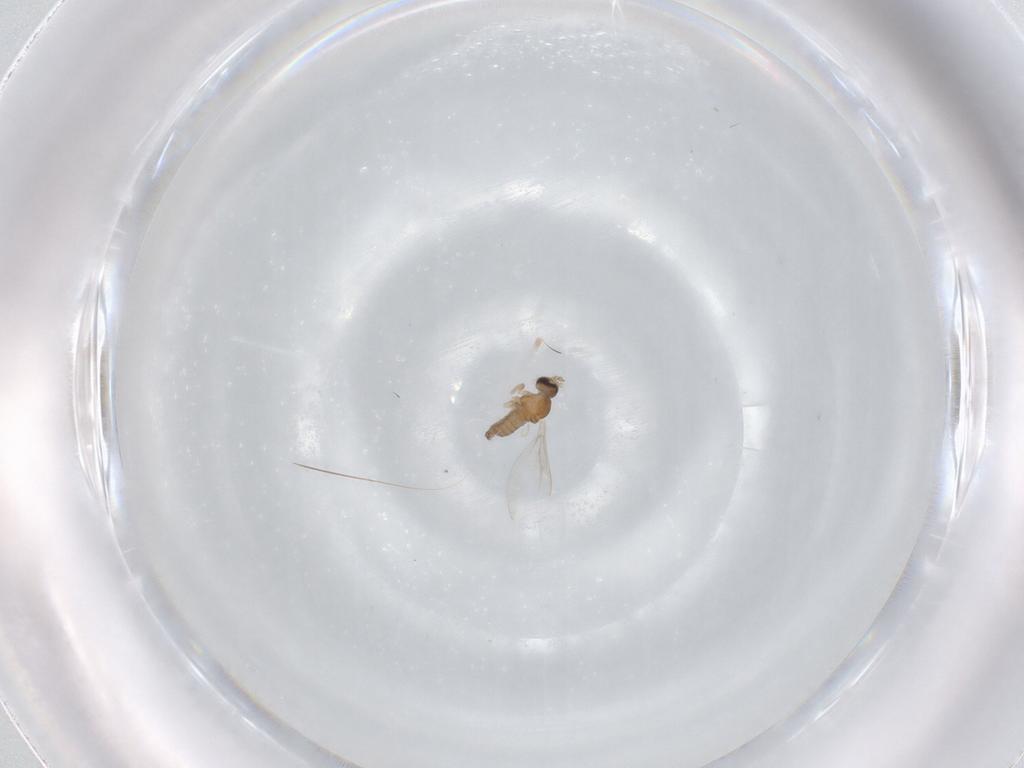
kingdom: Animalia
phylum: Arthropoda
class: Insecta
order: Diptera
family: Cecidomyiidae
